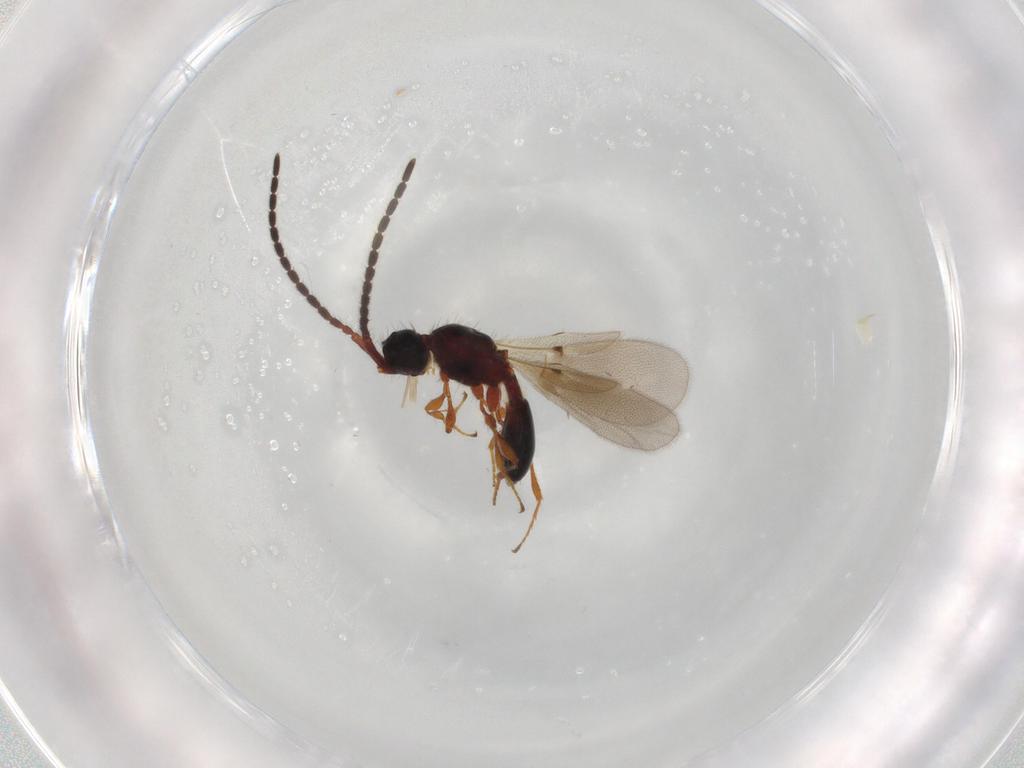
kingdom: Animalia
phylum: Arthropoda
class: Insecta
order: Hymenoptera
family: Diapriidae
